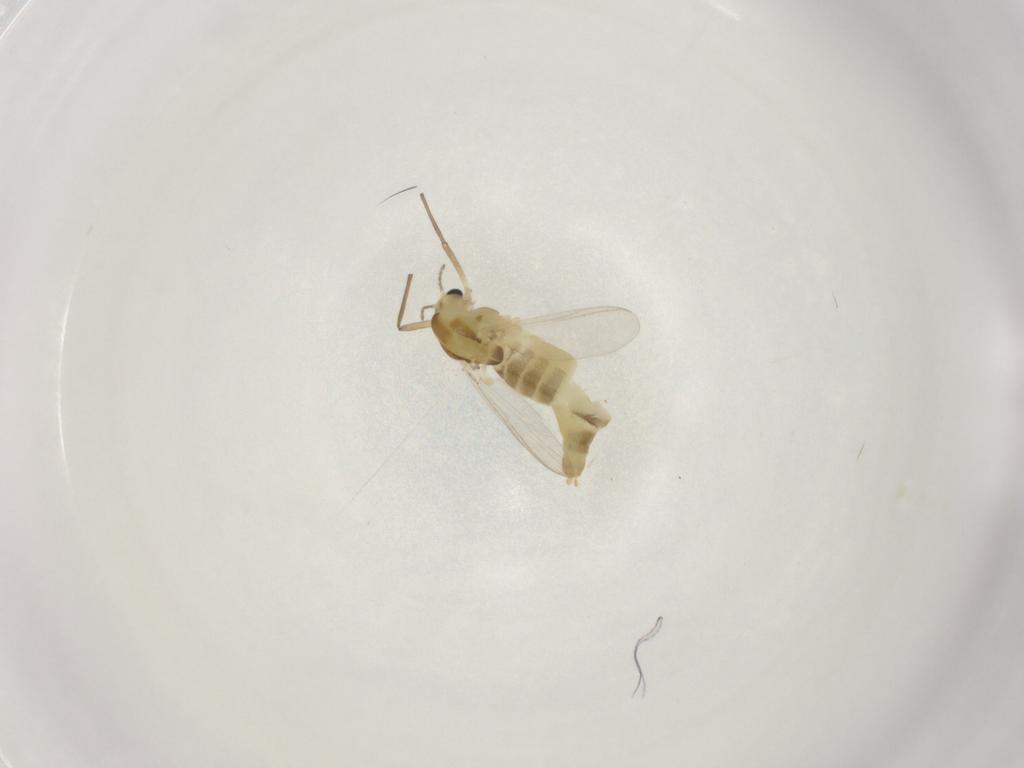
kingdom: Animalia
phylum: Arthropoda
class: Insecta
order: Diptera
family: Chironomidae
